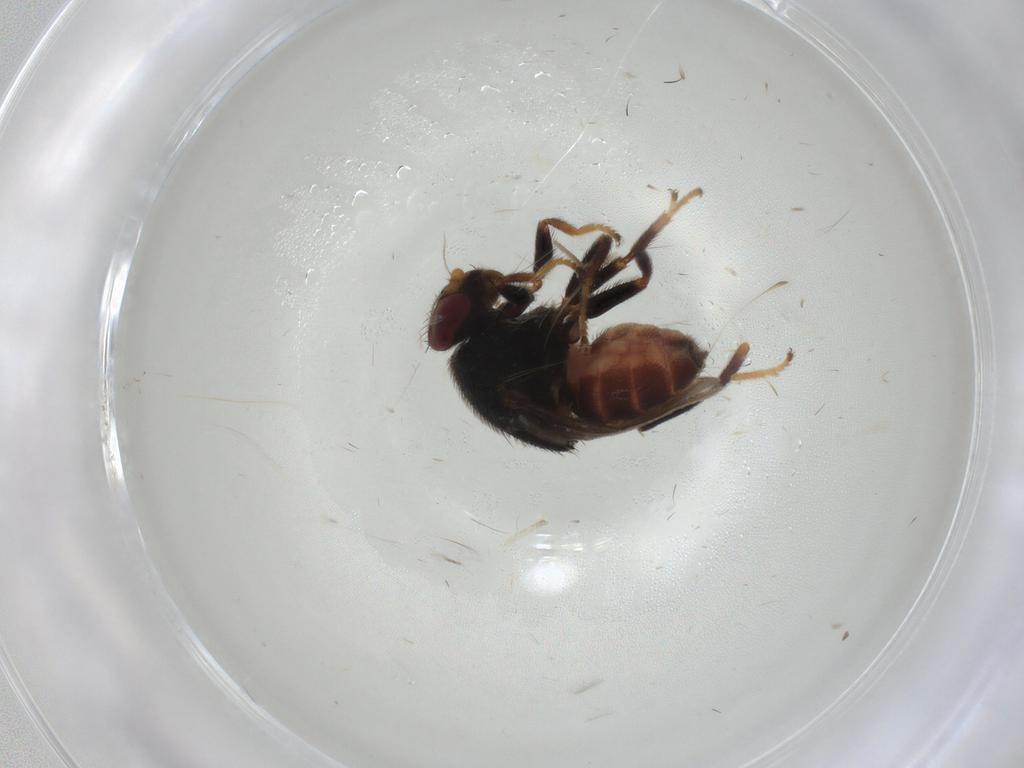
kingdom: Animalia
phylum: Arthropoda
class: Insecta
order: Diptera
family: Chloropidae
